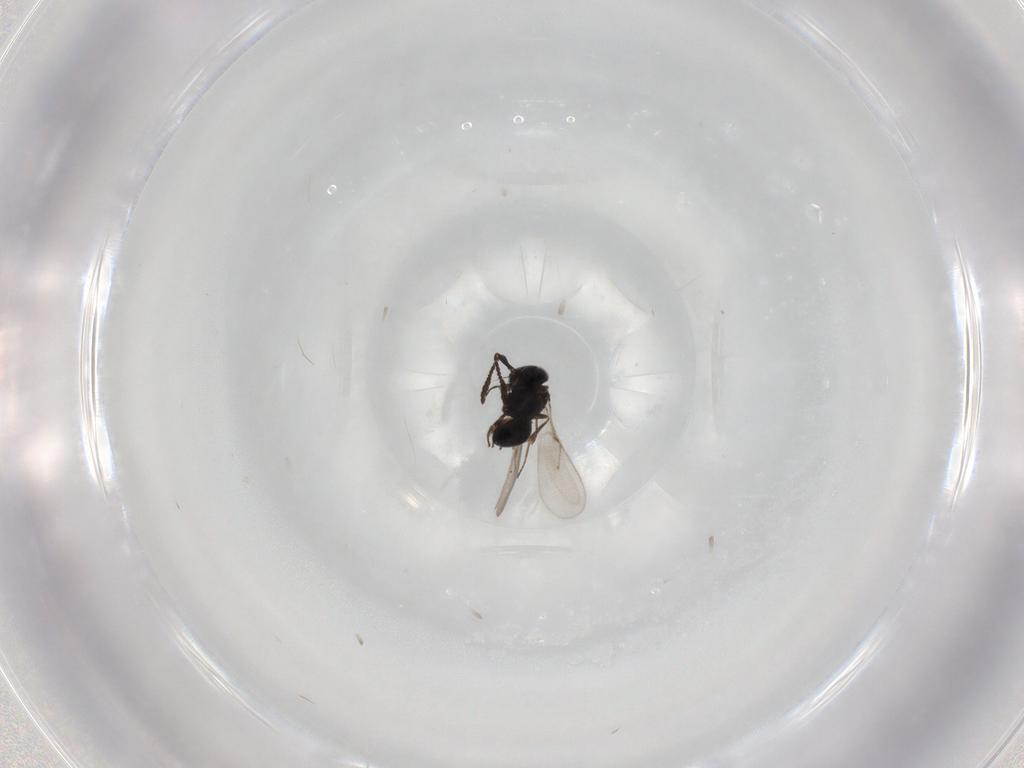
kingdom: Animalia
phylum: Arthropoda
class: Insecta
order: Hymenoptera
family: Scelionidae
